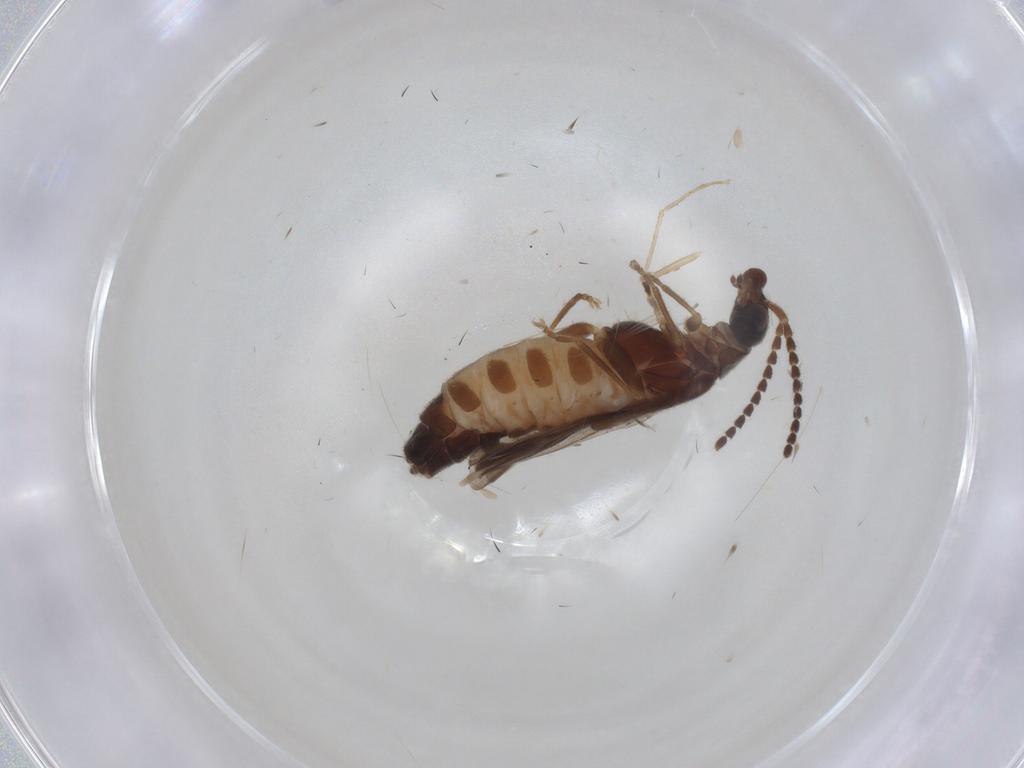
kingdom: Animalia
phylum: Arthropoda
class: Insecta
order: Coleoptera
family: Cantharidae
